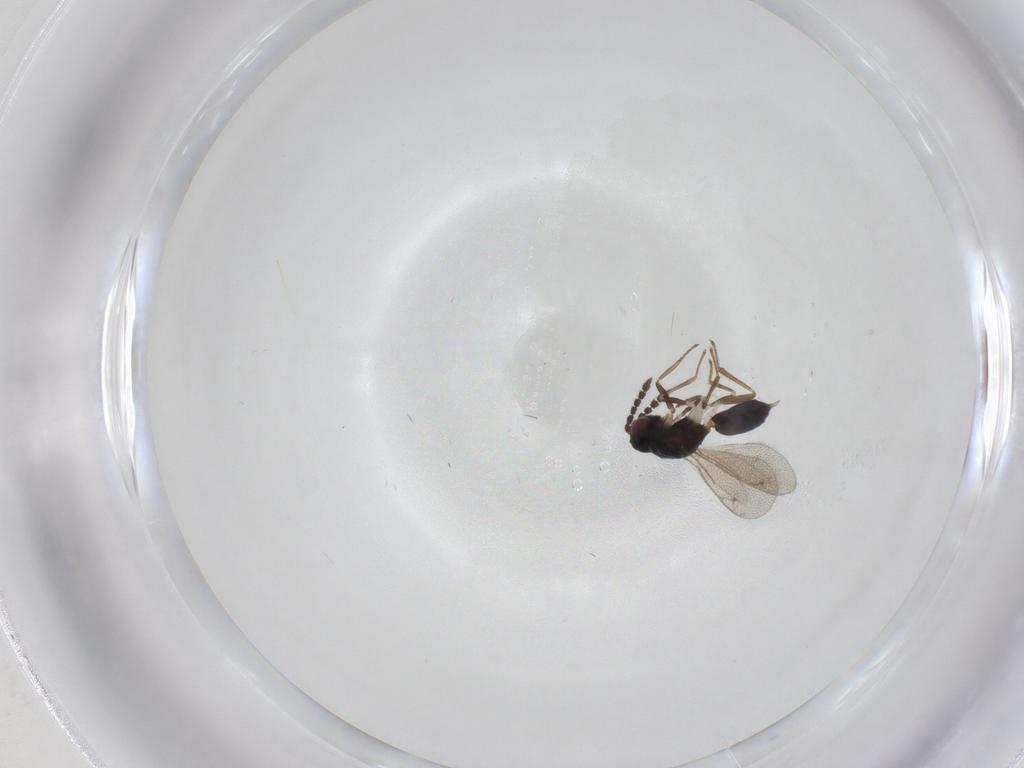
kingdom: Animalia
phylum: Arthropoda
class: Insecta
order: Hymenoptera
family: Eulophidae
